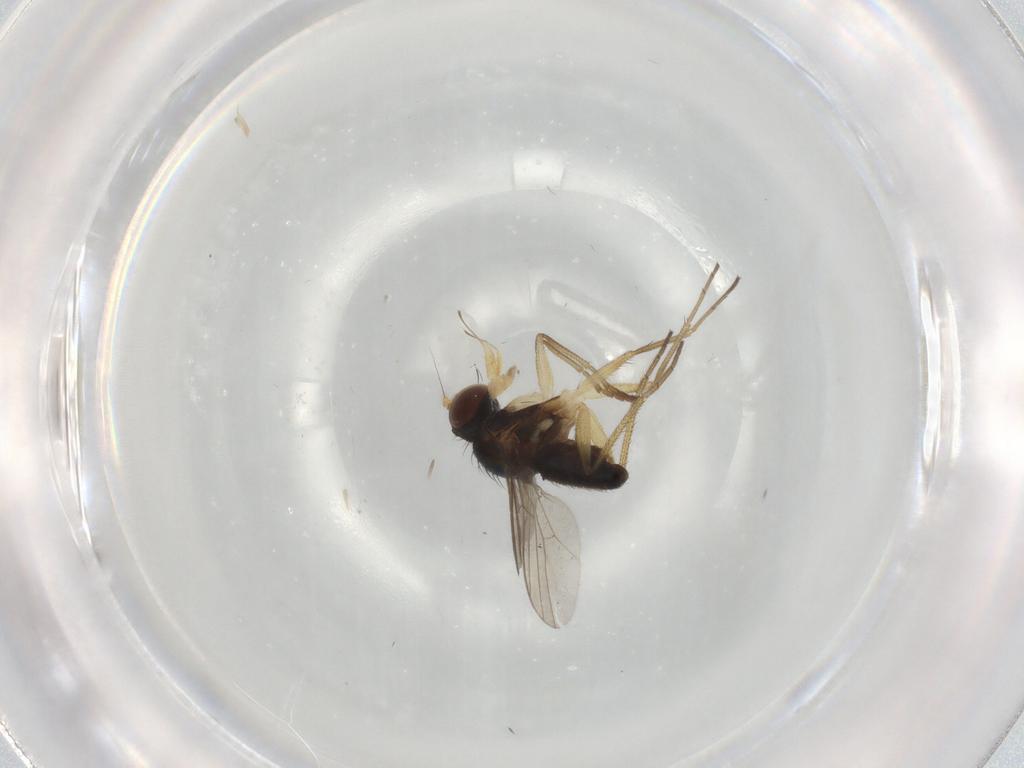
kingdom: Animalia
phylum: Arthropoda
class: Insecta
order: Diptera
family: Dolichopodidae
